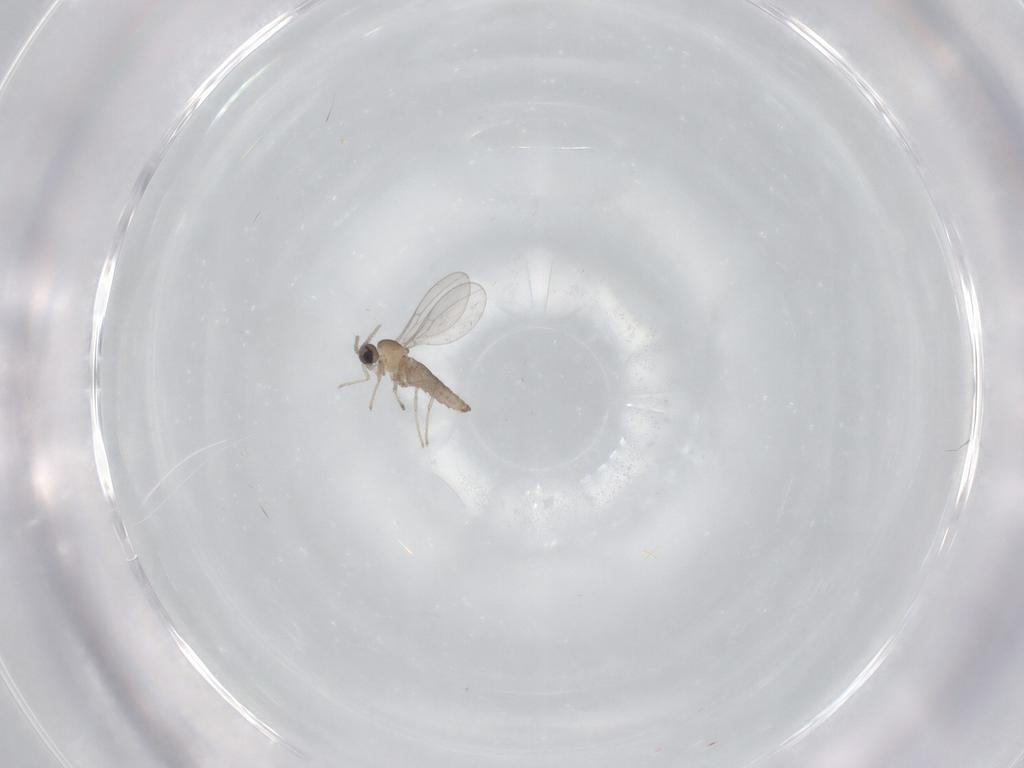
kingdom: Animalia
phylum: Arthropoda
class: Insecta
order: Diptera
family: Cecidomyiidae
